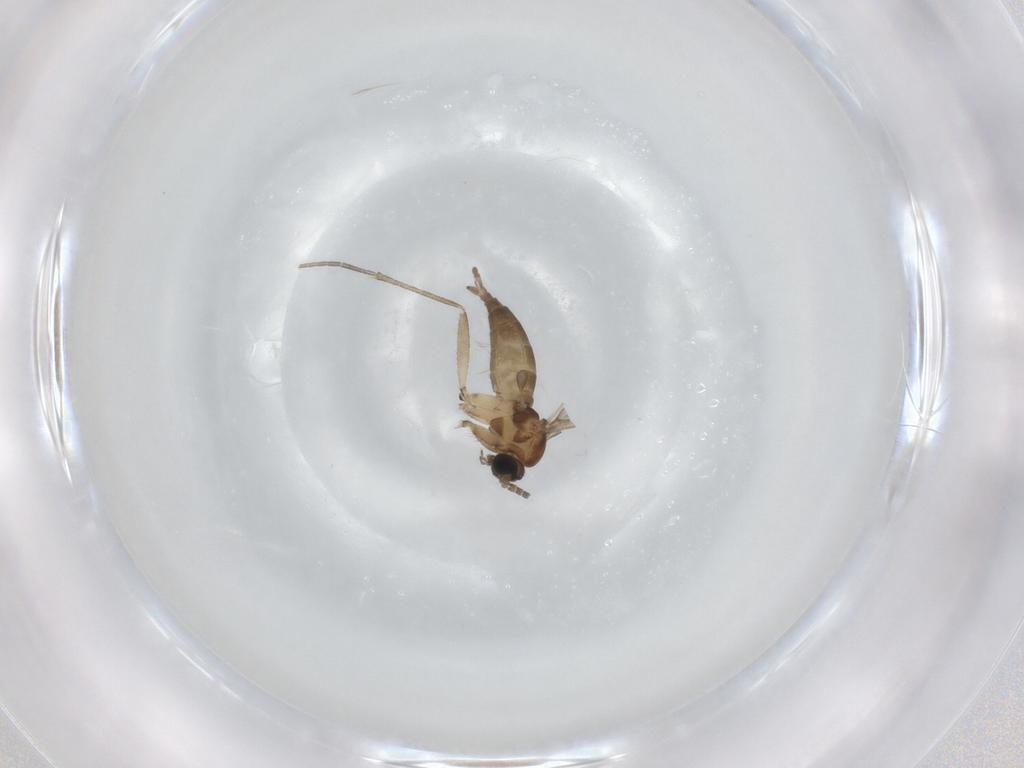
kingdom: Animalia
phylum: Arthropoda
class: Insecta
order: Diptera
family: Sciaridae
